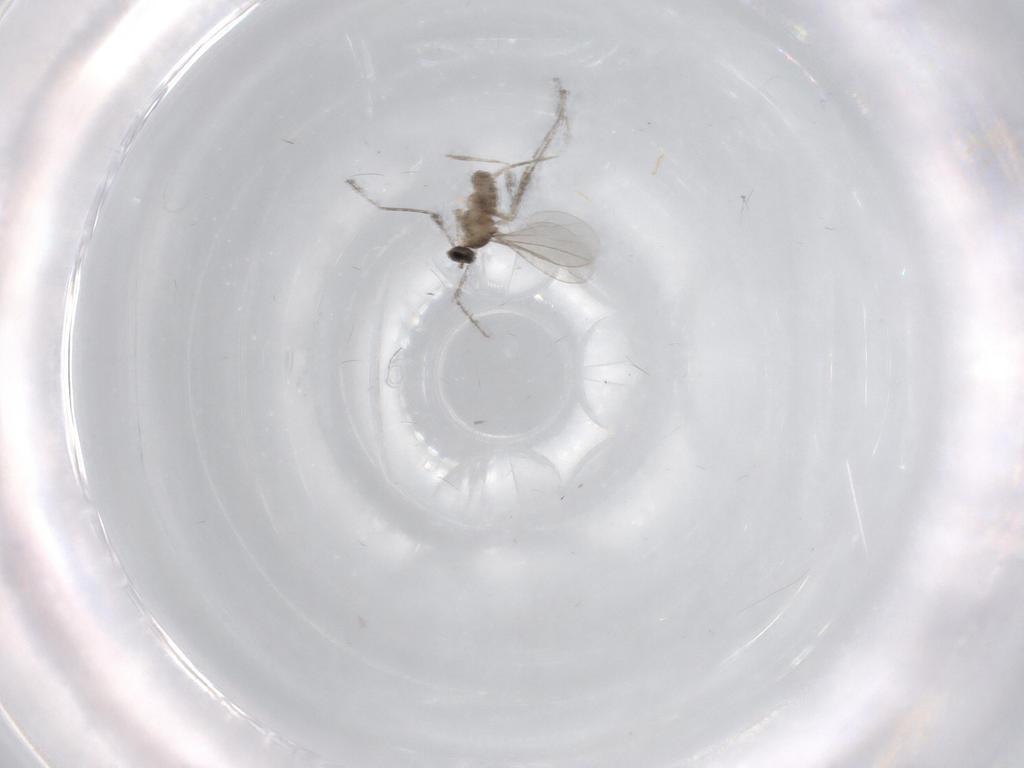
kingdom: Animalia
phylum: Arthropoda
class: Insecta
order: Diptera
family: Cecidomyiidae
